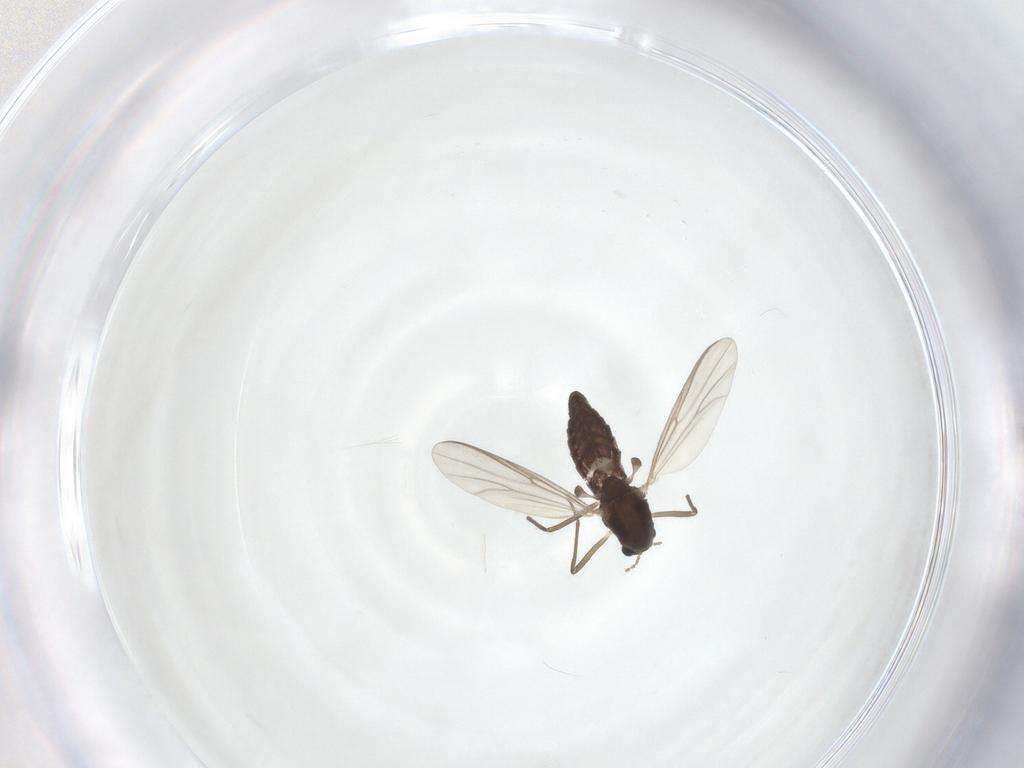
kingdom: Animalia
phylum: Arthropoda
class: Insecta
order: Diptera
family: Chironomidae
